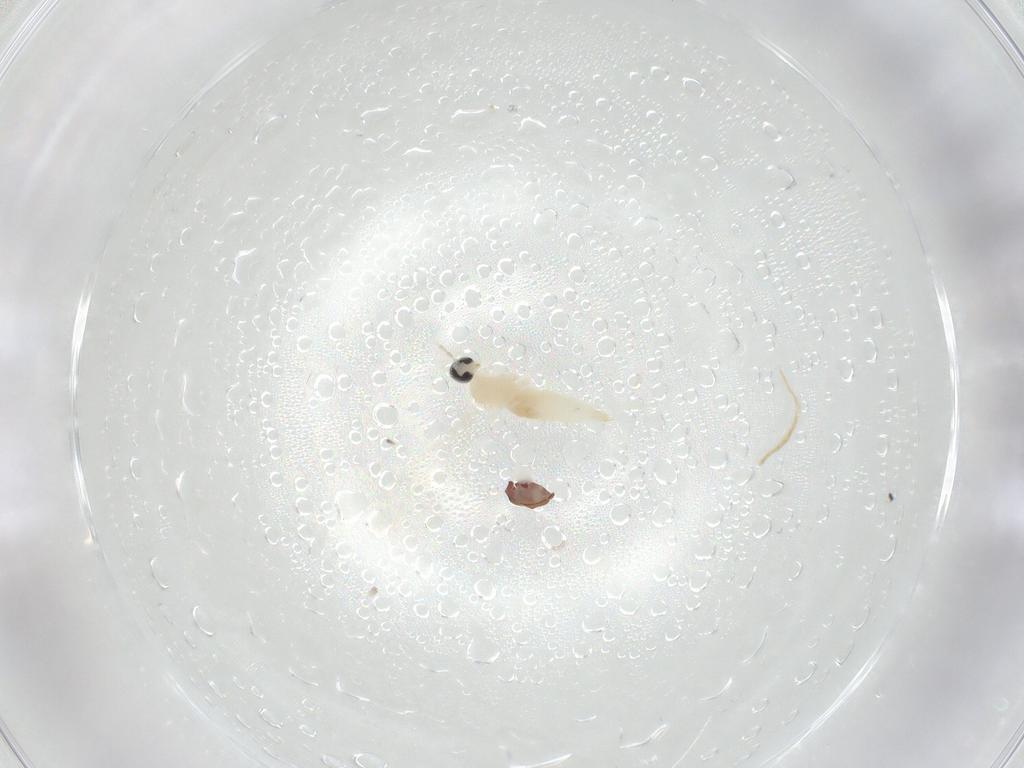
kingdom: Animalia
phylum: Arthropoda
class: Insecta
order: Diptera
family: Cecidomyiidae
